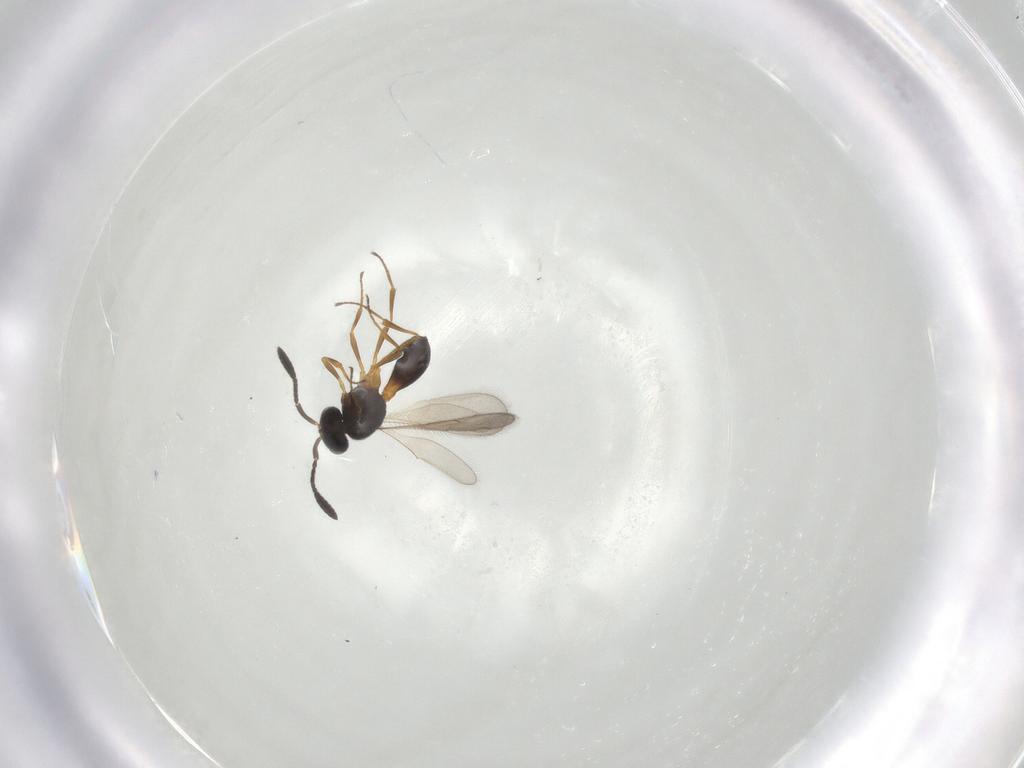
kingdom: Animalia
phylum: Arthropoda
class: Insecta
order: Hymenoptera
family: Scelionidae
